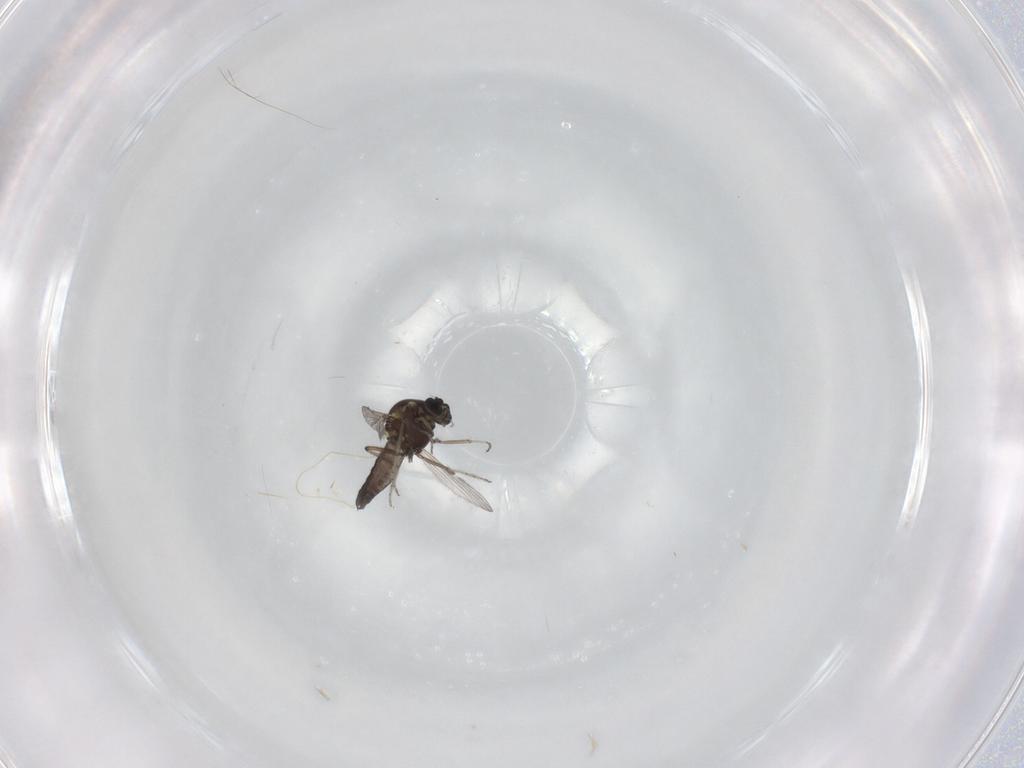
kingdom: Animalia
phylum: Arthropoda
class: Insecta
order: Diptera
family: Ceratopogonidae
